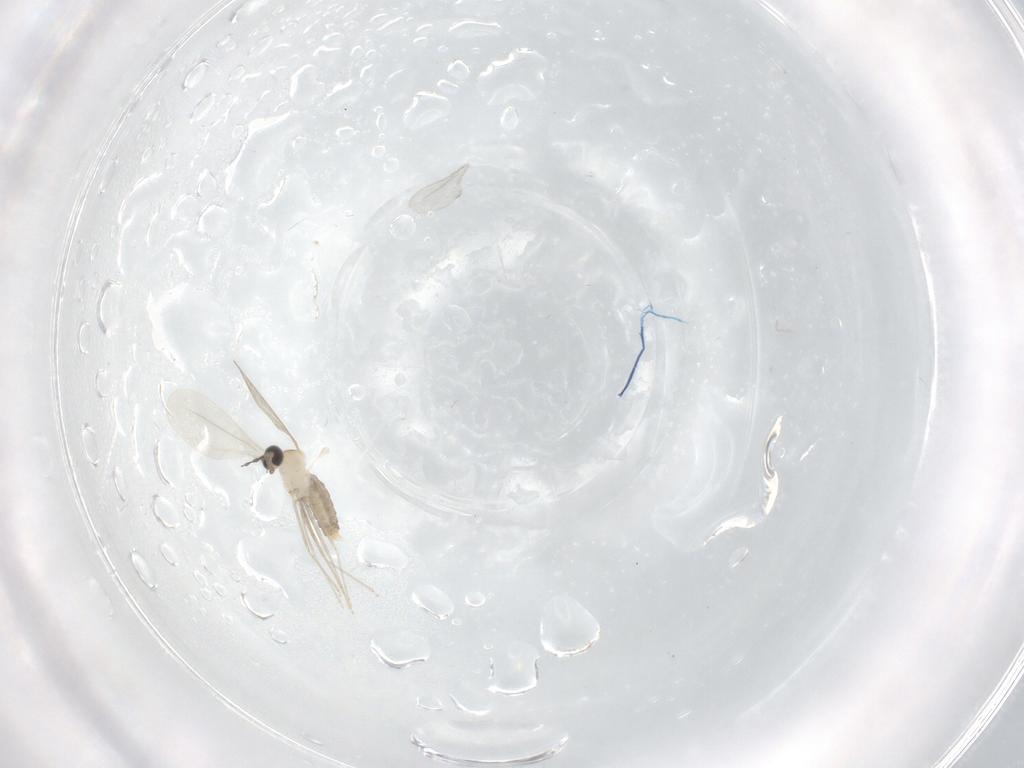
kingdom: Animalia
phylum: Arthropoda
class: Insecta
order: Diptera
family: Cecidomyiidae
